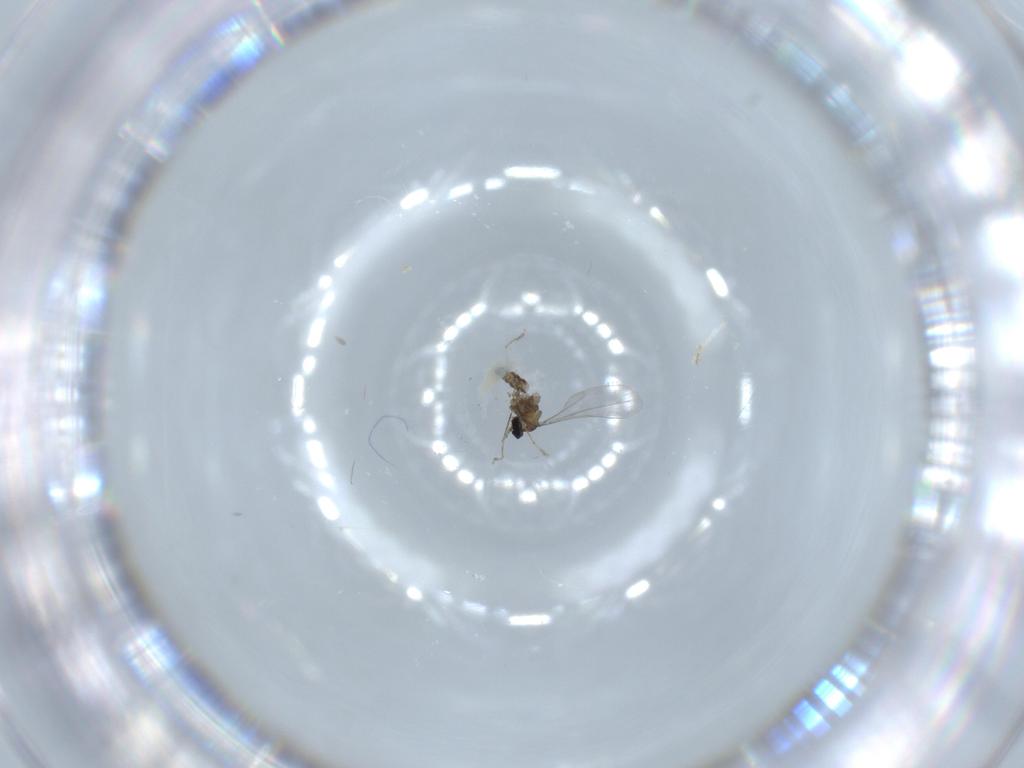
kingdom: Animalia
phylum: Arthropoda
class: Insecta
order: Diptera
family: Cecidomyiidae
